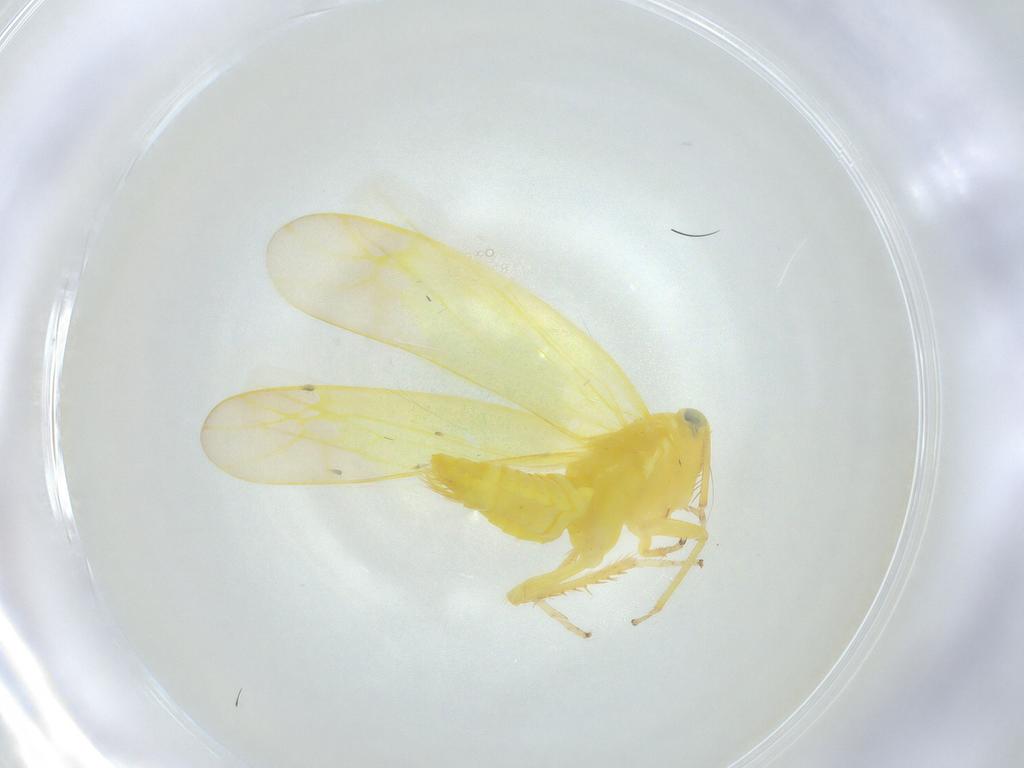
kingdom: Animalia
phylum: Arthropoda
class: Insecta
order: Hemiptera
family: Cicadellidae
